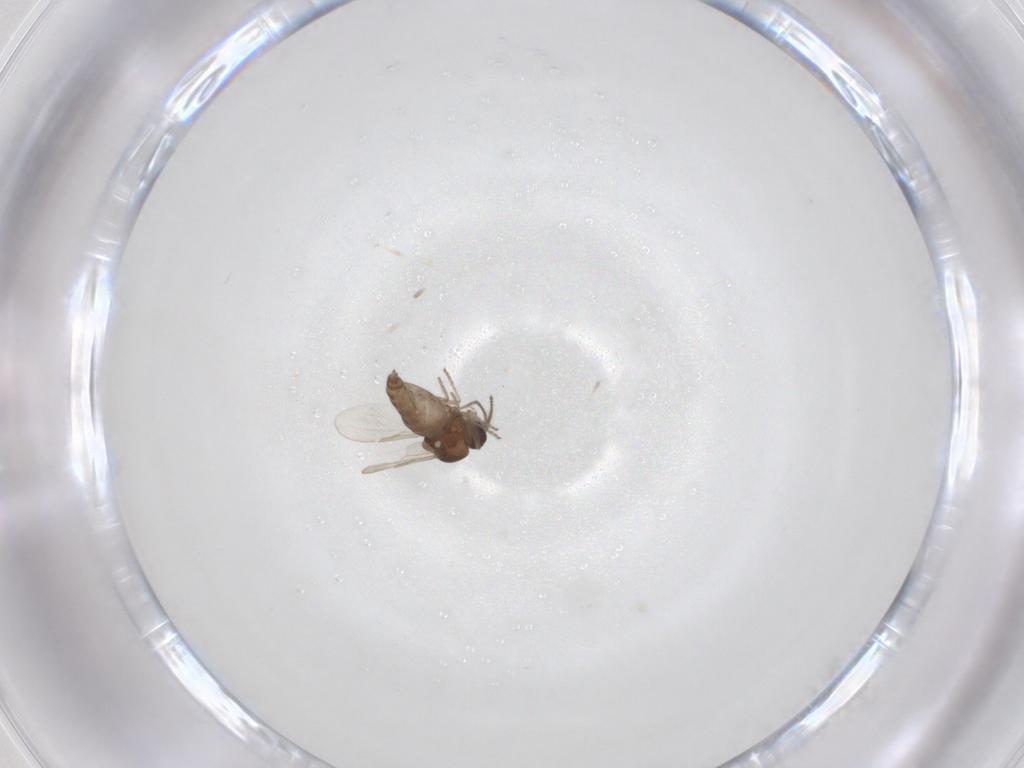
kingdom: Animalia
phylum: Arthropoda
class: Insecta
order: Diptera
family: Ceratopogonidae
